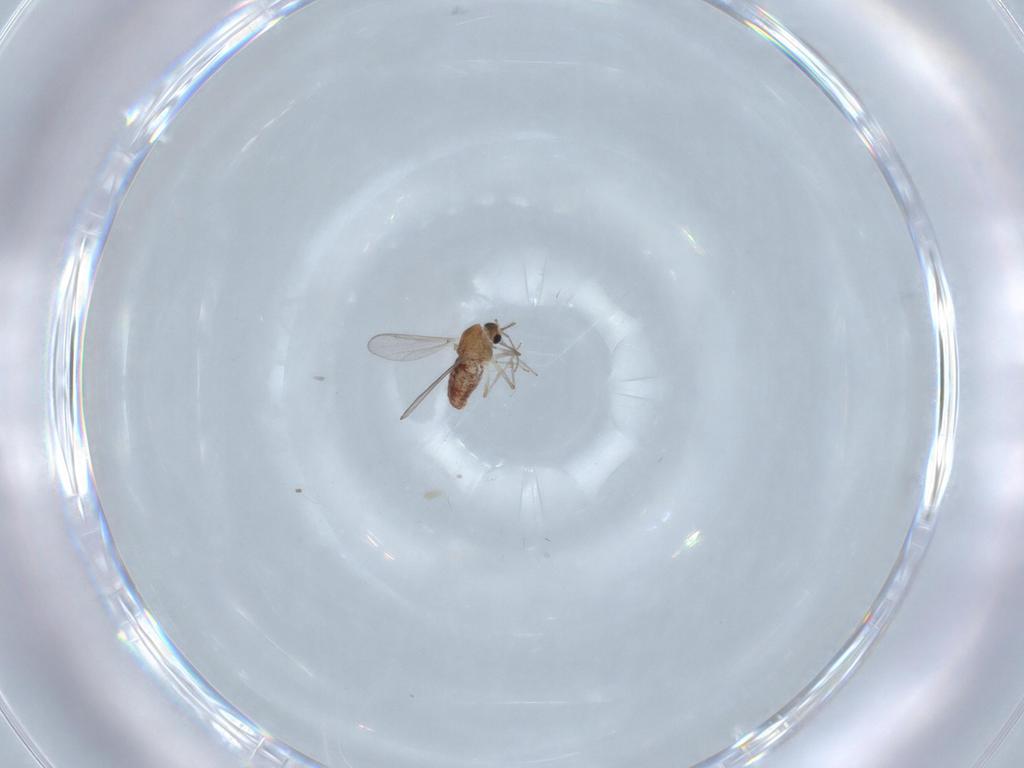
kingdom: Animalia
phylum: Arthropoda
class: Insecta
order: Diptera
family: Chironomidae
